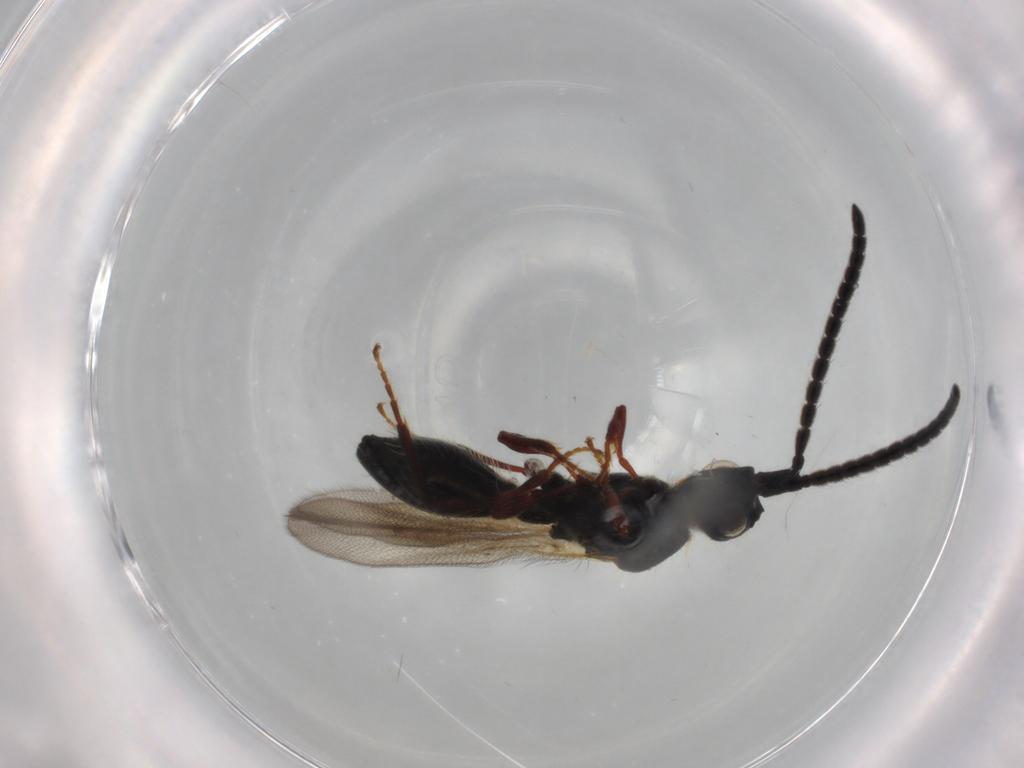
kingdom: Animalia
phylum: Arthropoda
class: Insecta
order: Hymenoptera
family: Diapriidae
